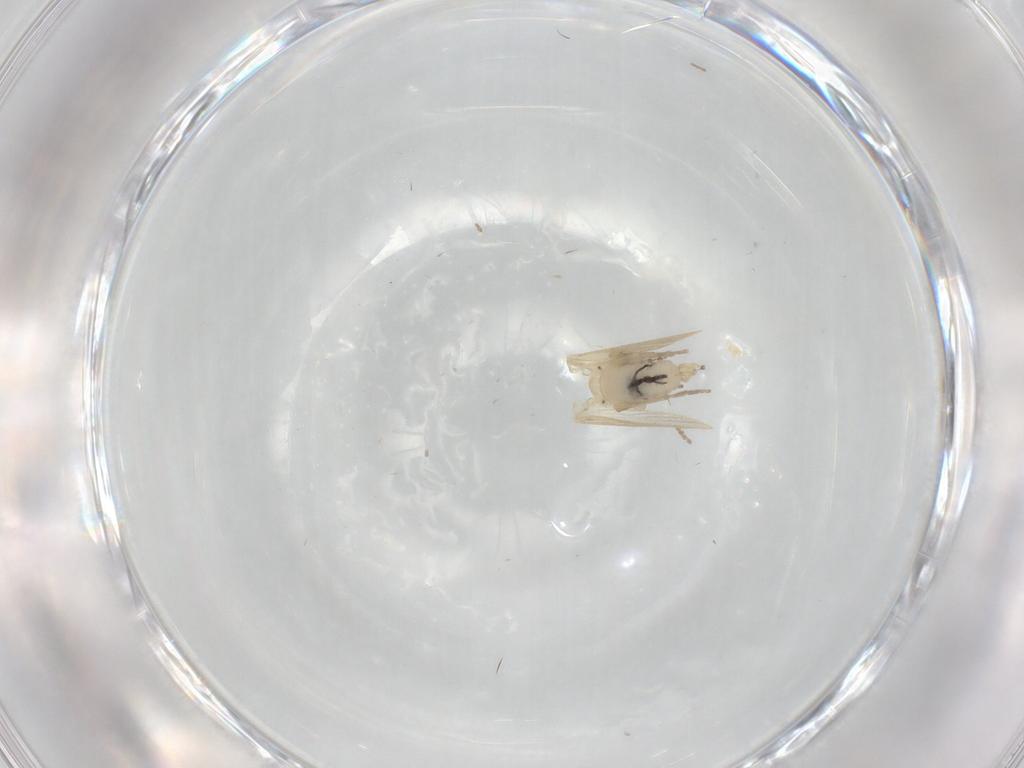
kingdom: Animalia
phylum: Arthropoda
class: Insecta
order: Diptera
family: Psychodidae
